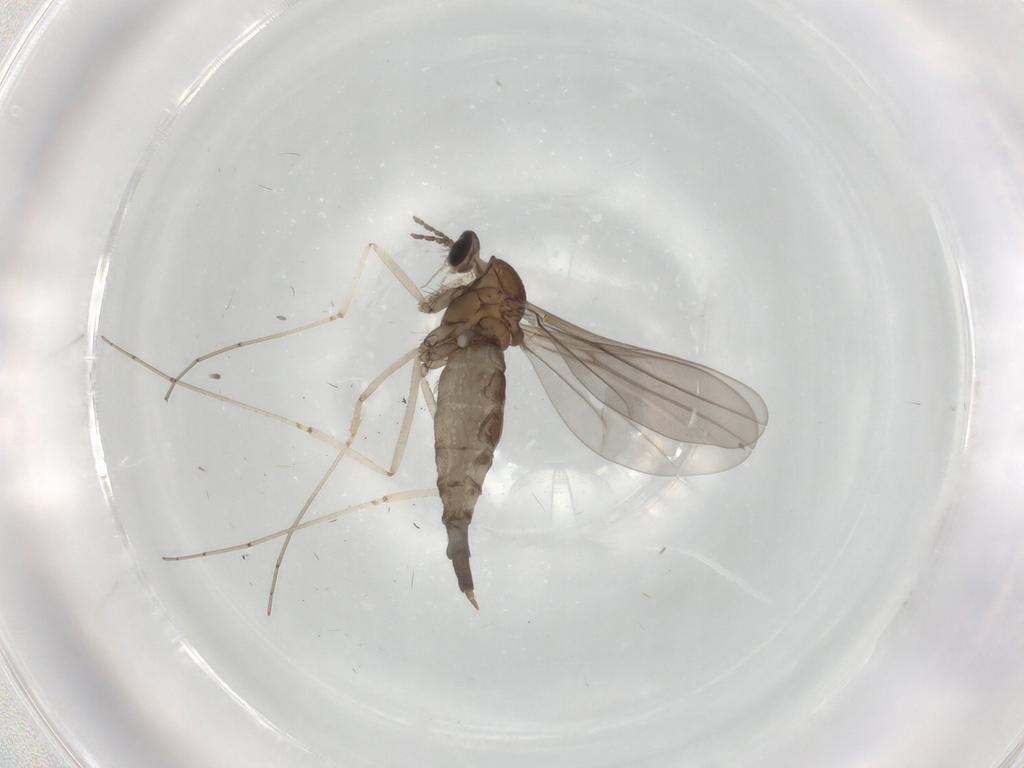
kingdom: Animalia
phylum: Arthropoda
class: Insecta
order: Diptera
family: Cecidomyiidae
